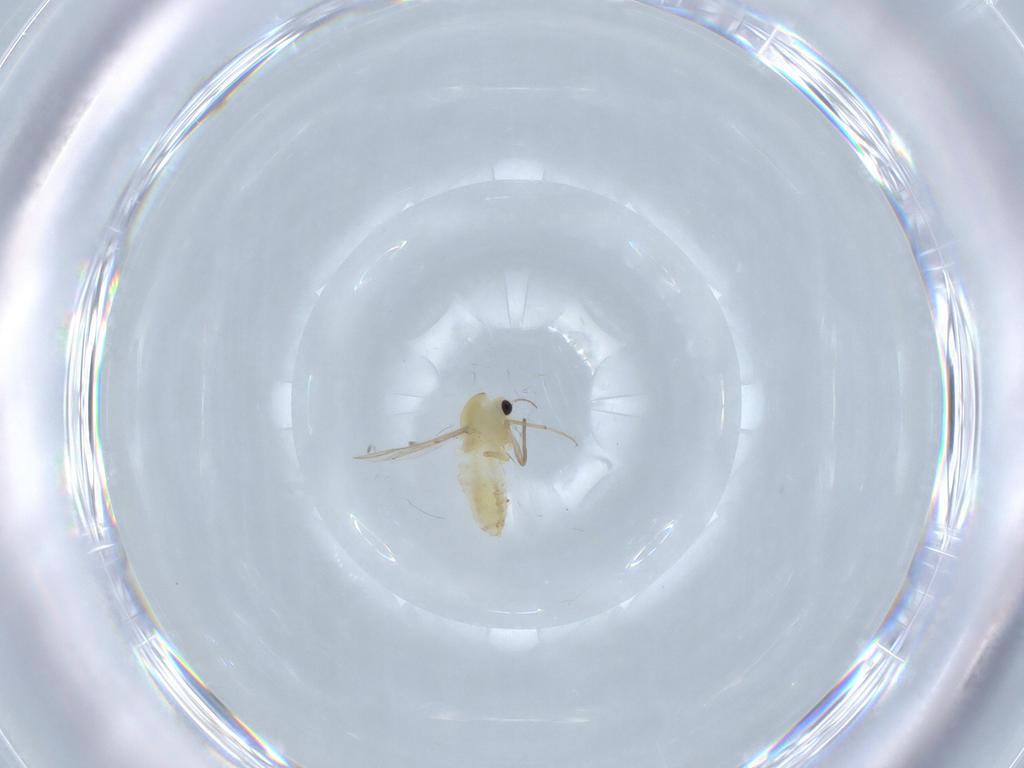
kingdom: Animalia
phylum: Arthropoda
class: Insecta
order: Diptera
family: Chironomidae
